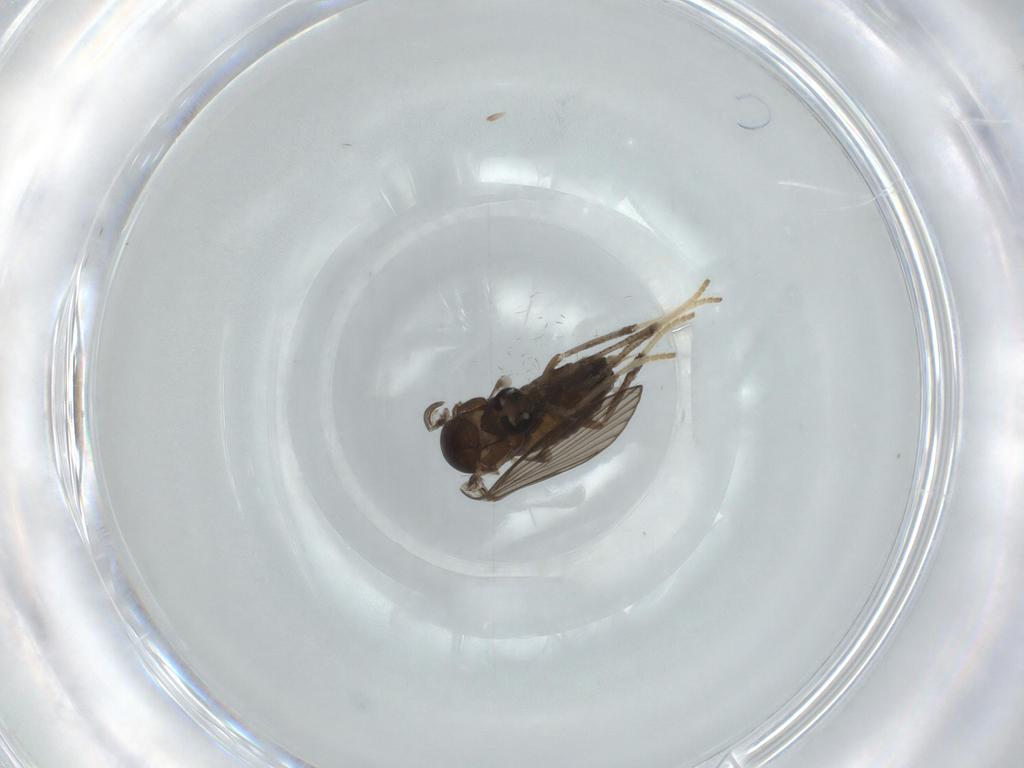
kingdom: Animalia
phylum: Arthropoda
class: Insecta
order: Diptera
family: Psychodidae
